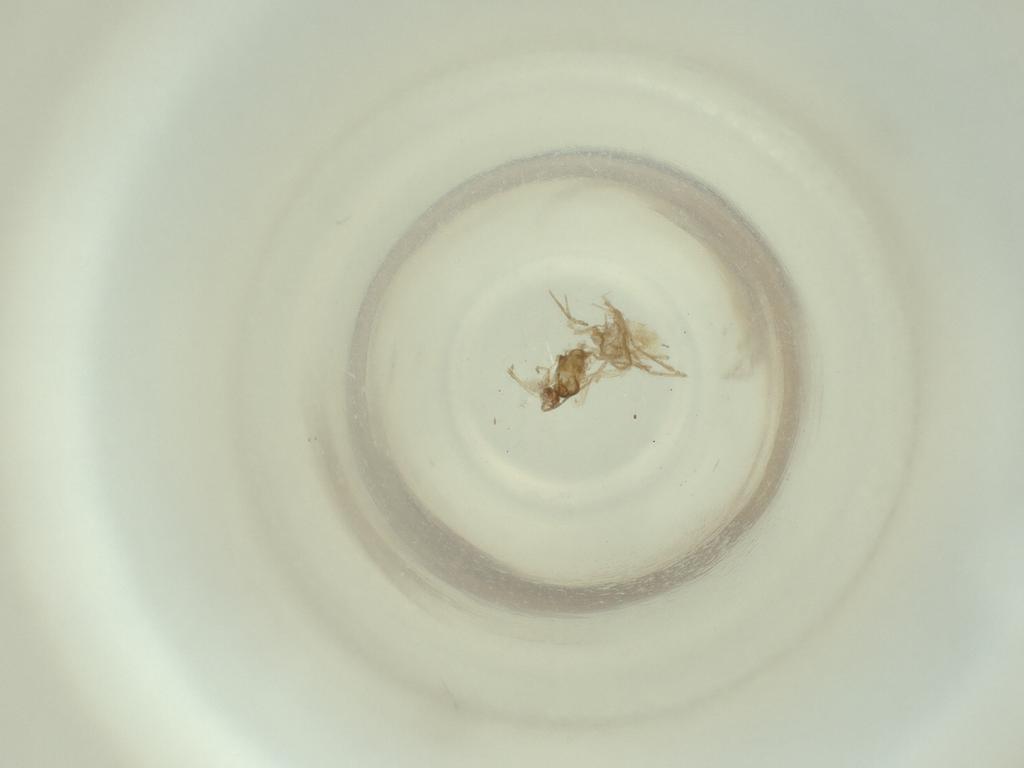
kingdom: Animalia
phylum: Arthropoda
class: Insecta
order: Diptera
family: Cecidomyiidae
